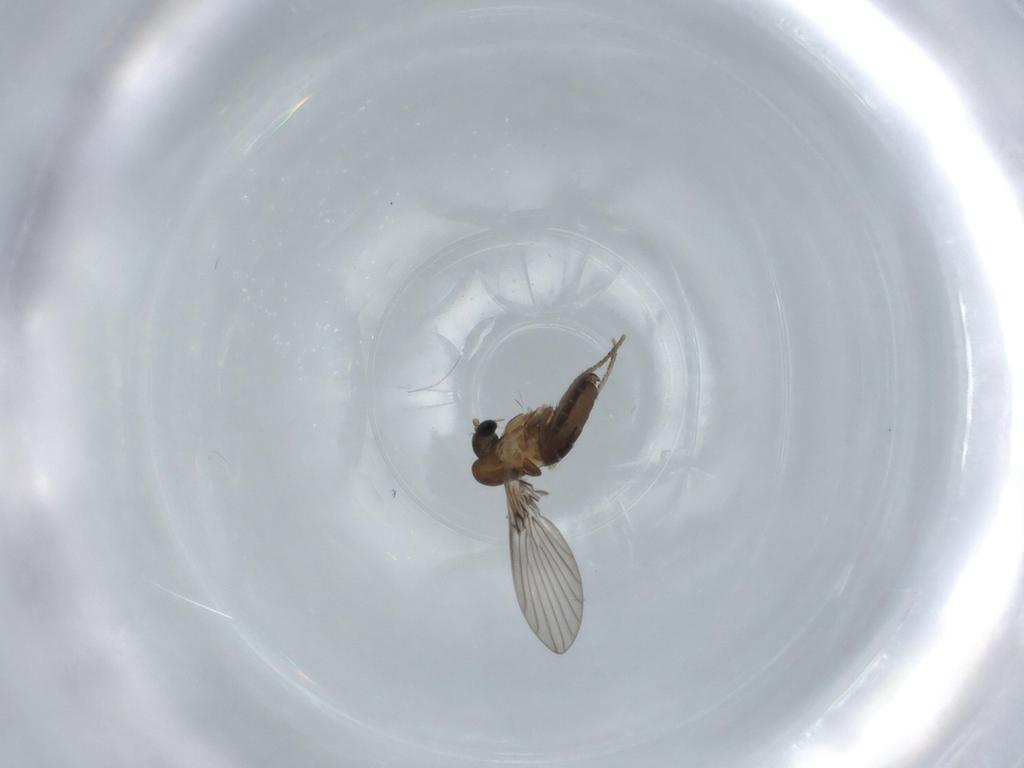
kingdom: Animalia
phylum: Arthropoda
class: Insecta
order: Diptera
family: Psychodidae
